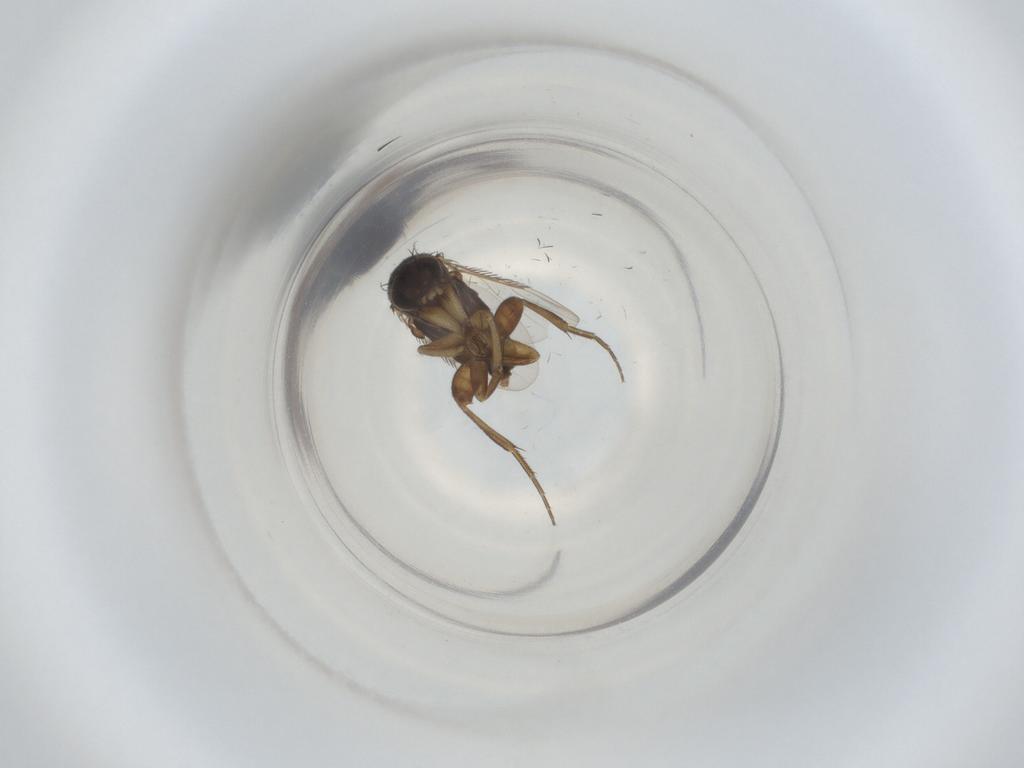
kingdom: Animalia
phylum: Arthropoda
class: Insecta
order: Diptera
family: Phoridae
